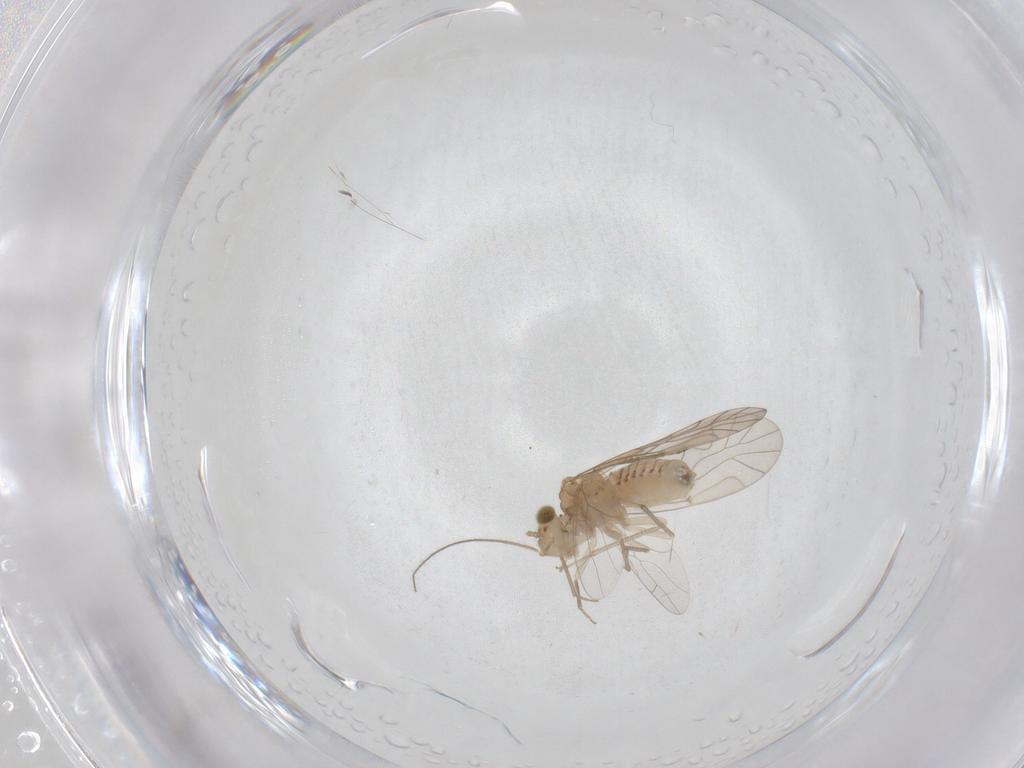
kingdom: Animalia
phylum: Arthropoda
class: Insecta
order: Psocodea
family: Lachesillidae
